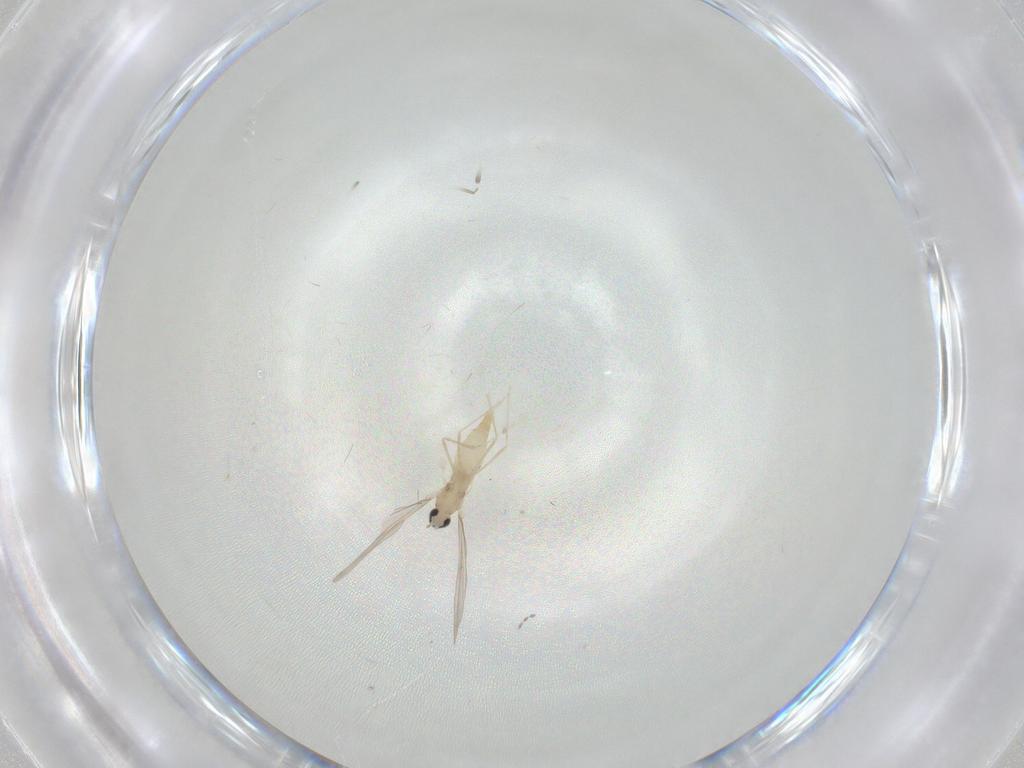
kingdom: Animalia
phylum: Arthropoda
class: Insecta
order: Diptera
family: Cecidomyiidae
